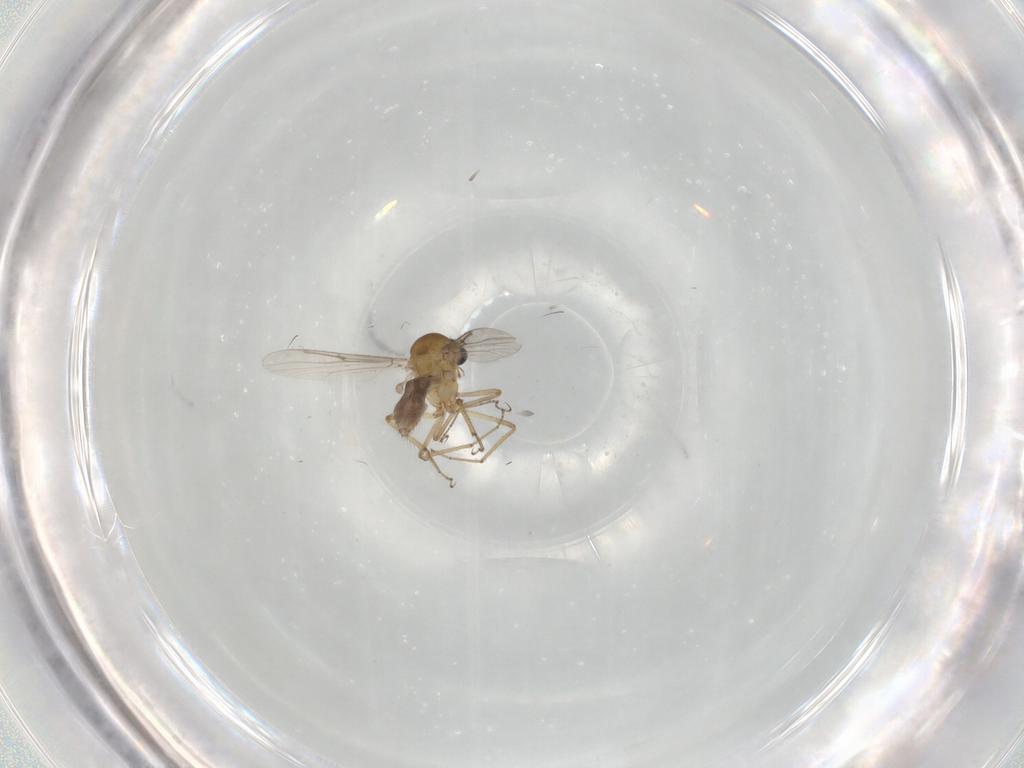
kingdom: Animalia
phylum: Arthropoda
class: Insecta
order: Diptera
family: Ceratopogonidae
